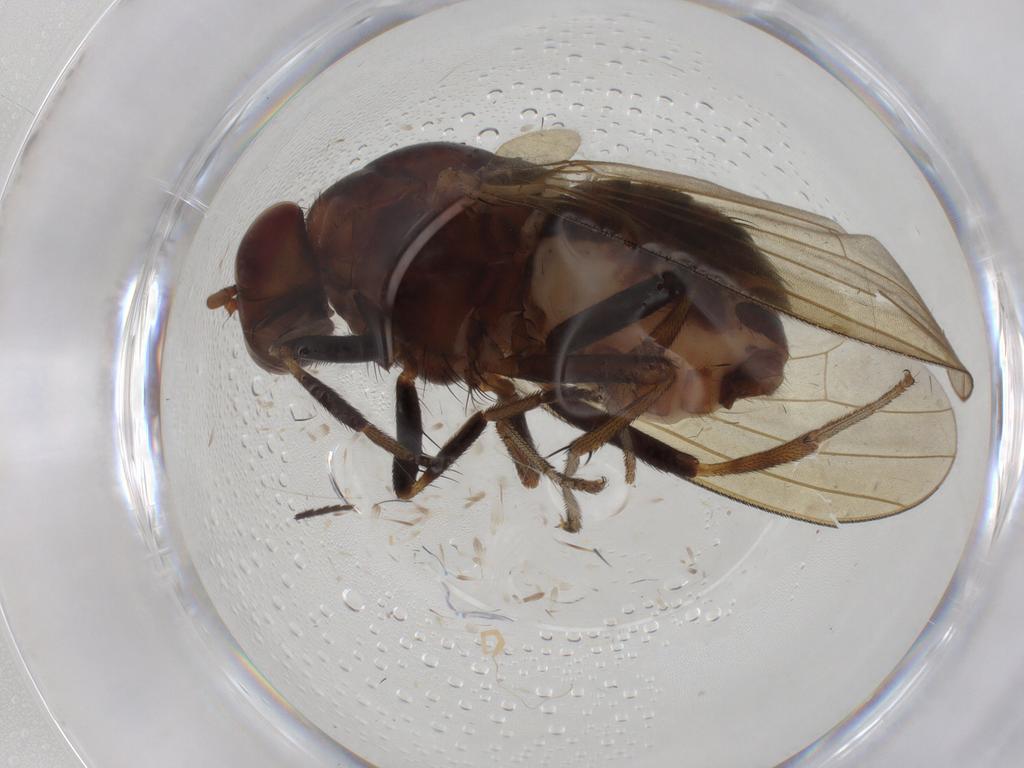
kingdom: Animalia
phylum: Arthropoda
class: Insecta
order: Diptera
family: Sciaridae
